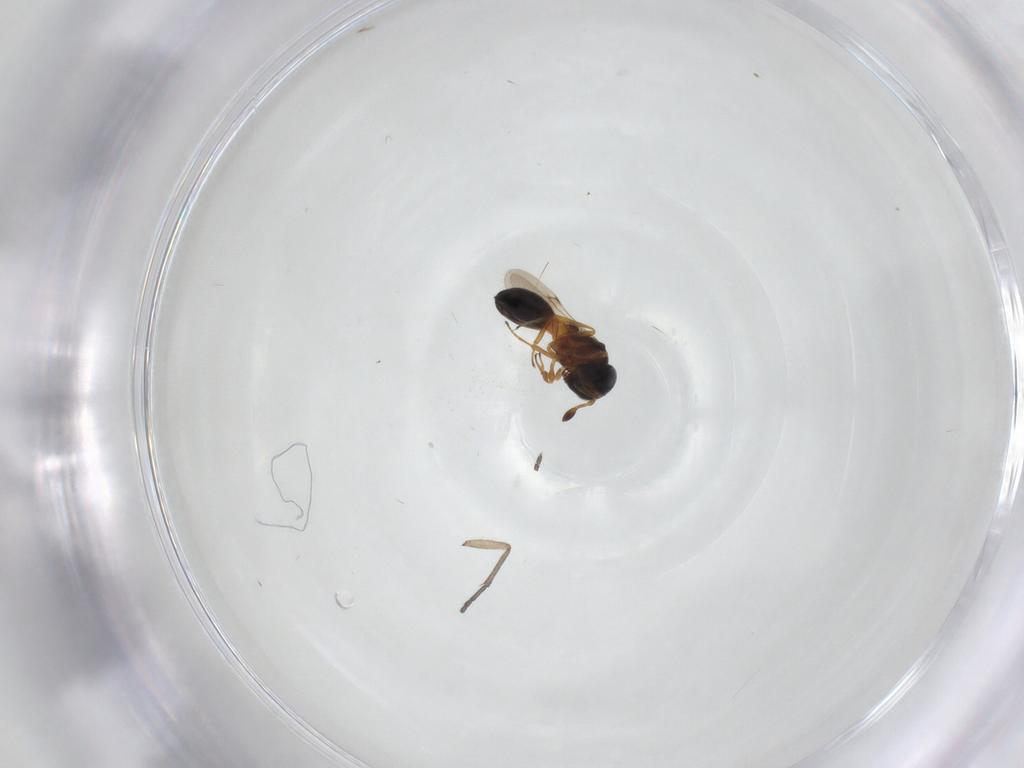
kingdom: Animalia
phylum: Arthropoda
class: Insecta
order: Hymenoptera
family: Scelionidae
